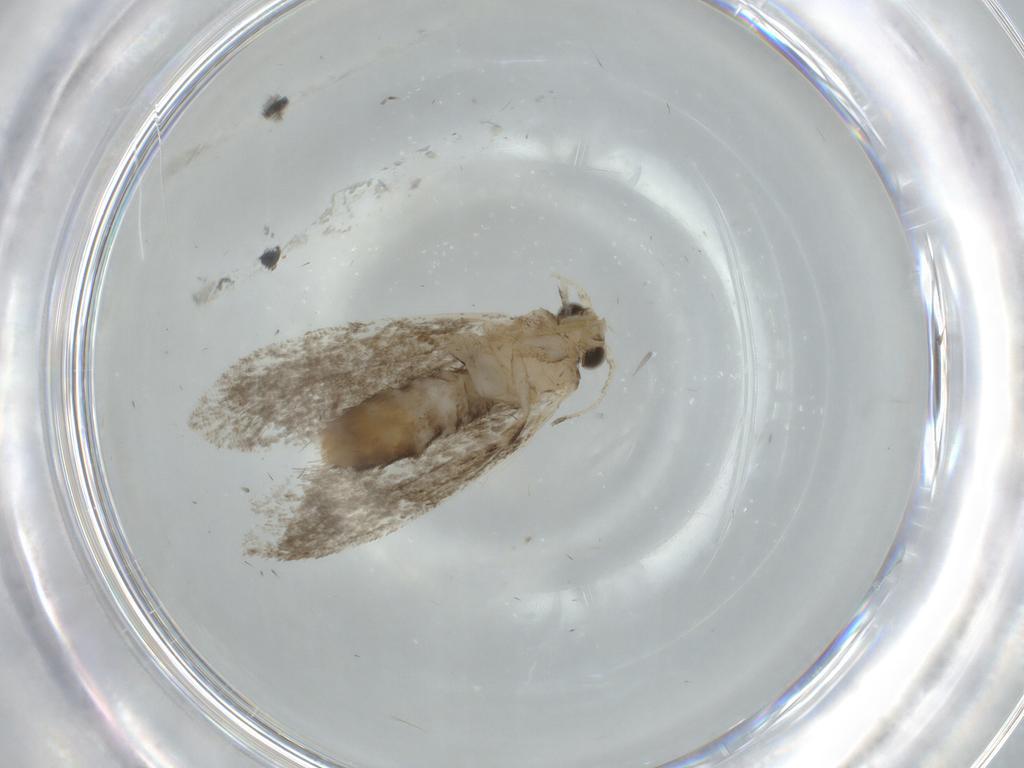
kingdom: Animalia
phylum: Arthropoda
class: Insecta
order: Lepidoptera
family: Tineidae
